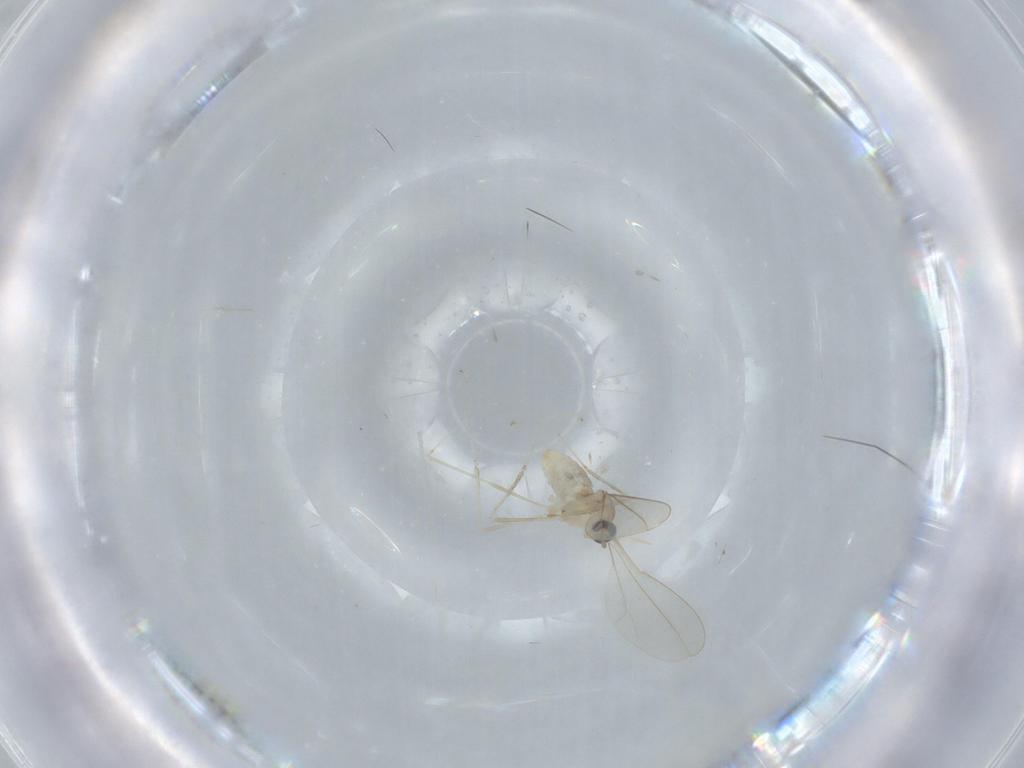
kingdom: Animalia
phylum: Arthropoda
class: Insecta
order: Diptera
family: Cecidomyiidae
